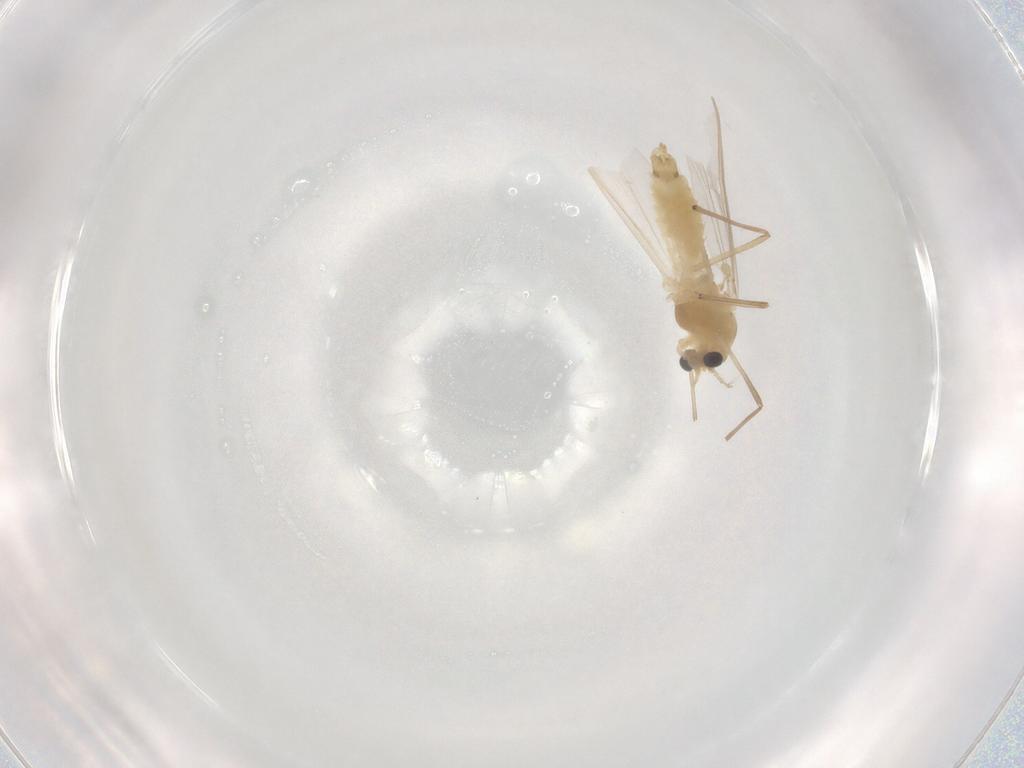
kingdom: Animalia
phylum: Arthropoda
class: Insecta
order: Diptera
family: Chironomidae
